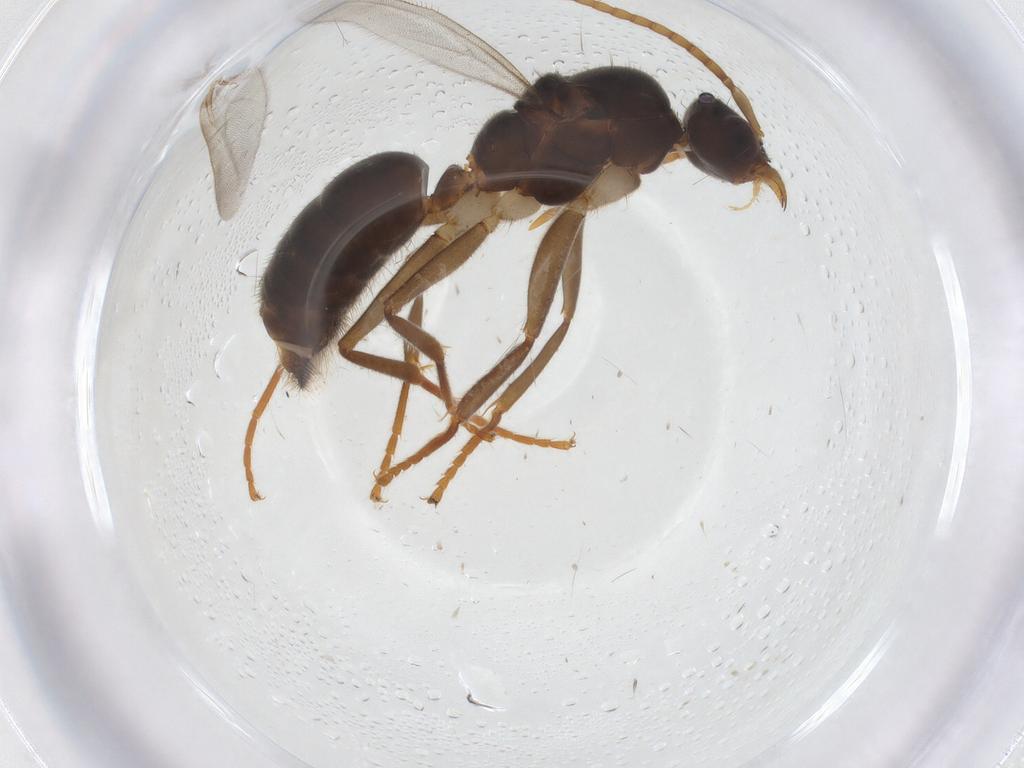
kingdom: Animalia
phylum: Arthropoda
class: Insecta
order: Hymenoptera
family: Formicidae
